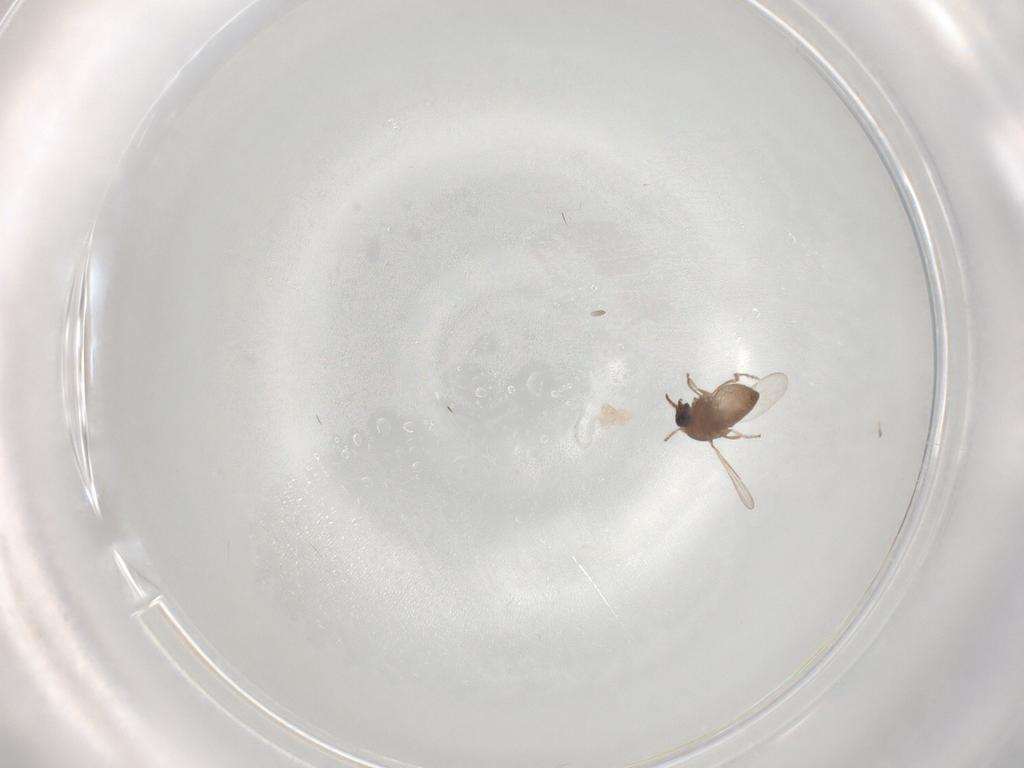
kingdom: Animalia
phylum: Arthropoda
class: Insecta
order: Diptera
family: Ceratopogonidae
